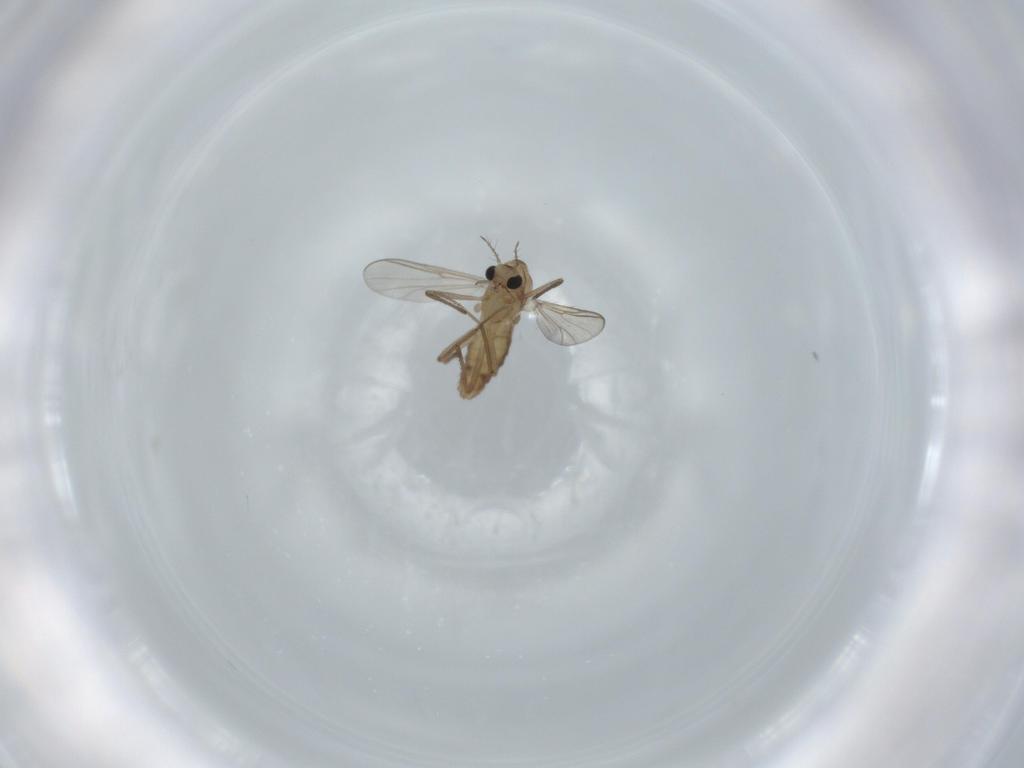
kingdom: Animalia
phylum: Arthropoda
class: Insecta
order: Diptera
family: Chironomidae
